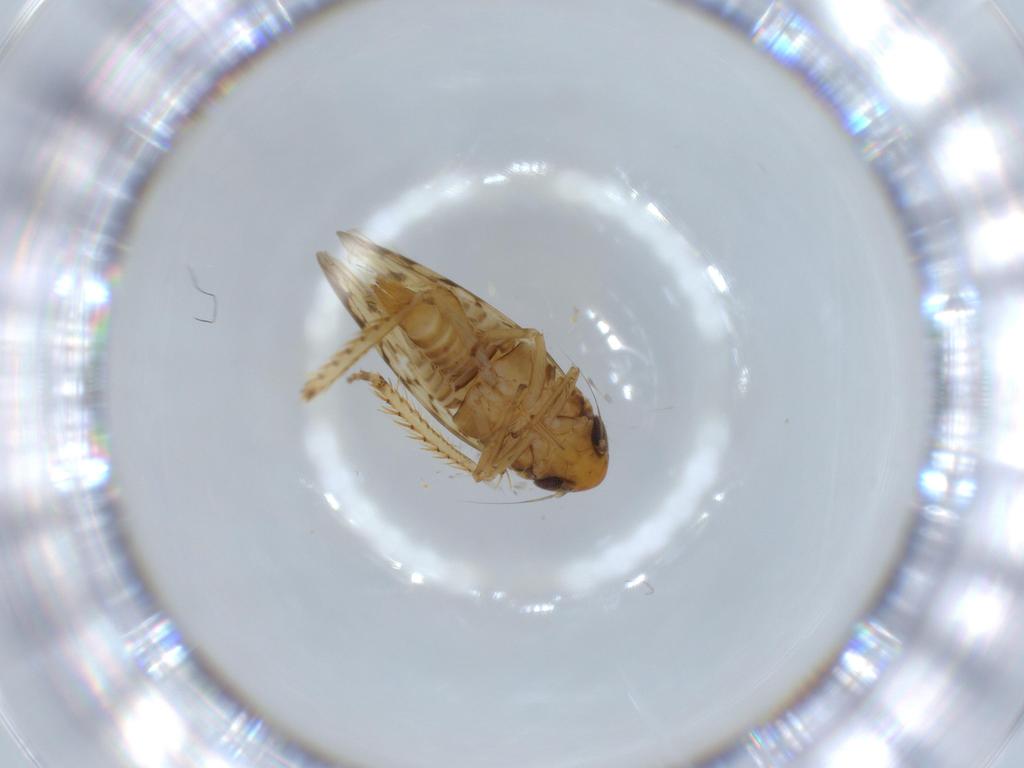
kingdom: Animalia
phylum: Arthropoda
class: Insecta
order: Hemiptera
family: Cicadellidae
